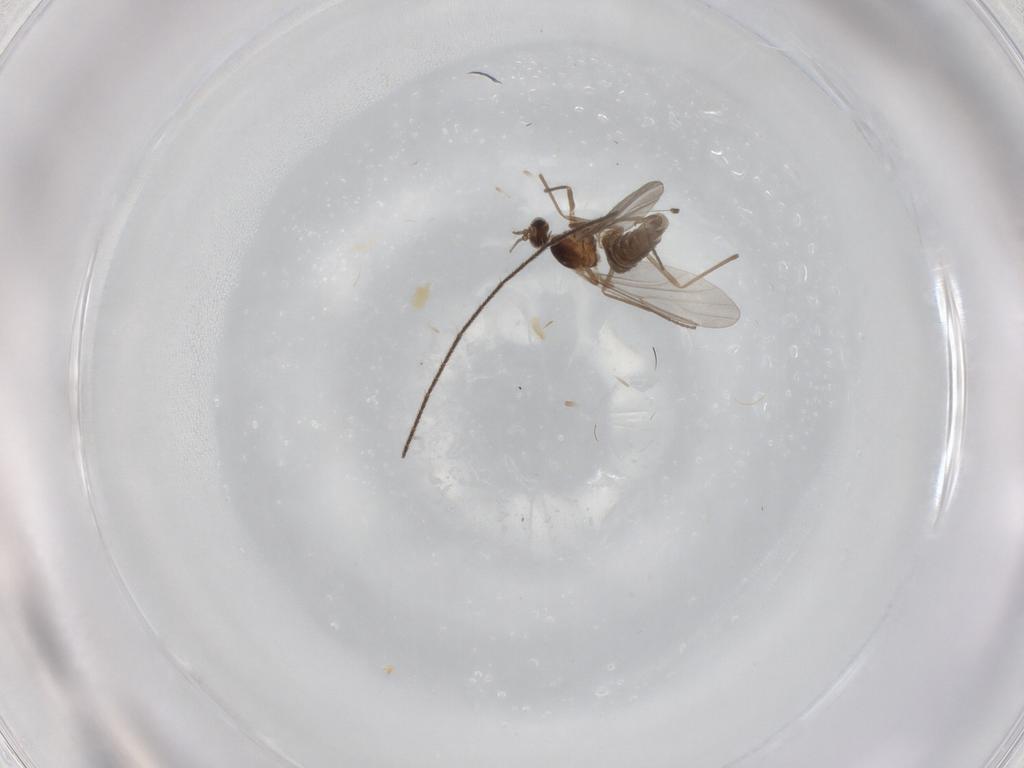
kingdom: Animalia
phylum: Arthropoda
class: Insecta
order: Diptera
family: Cecidomyiidae
